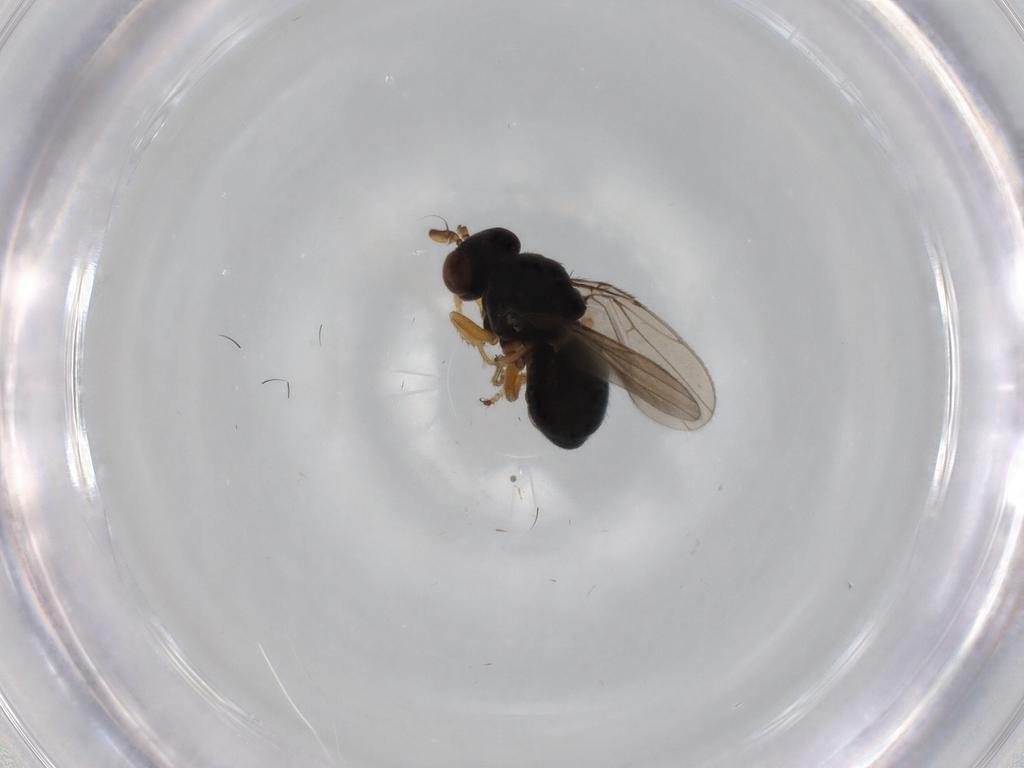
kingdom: Animalia
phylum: Arthropoda
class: Insecta
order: Diptera
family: Ephydridae
